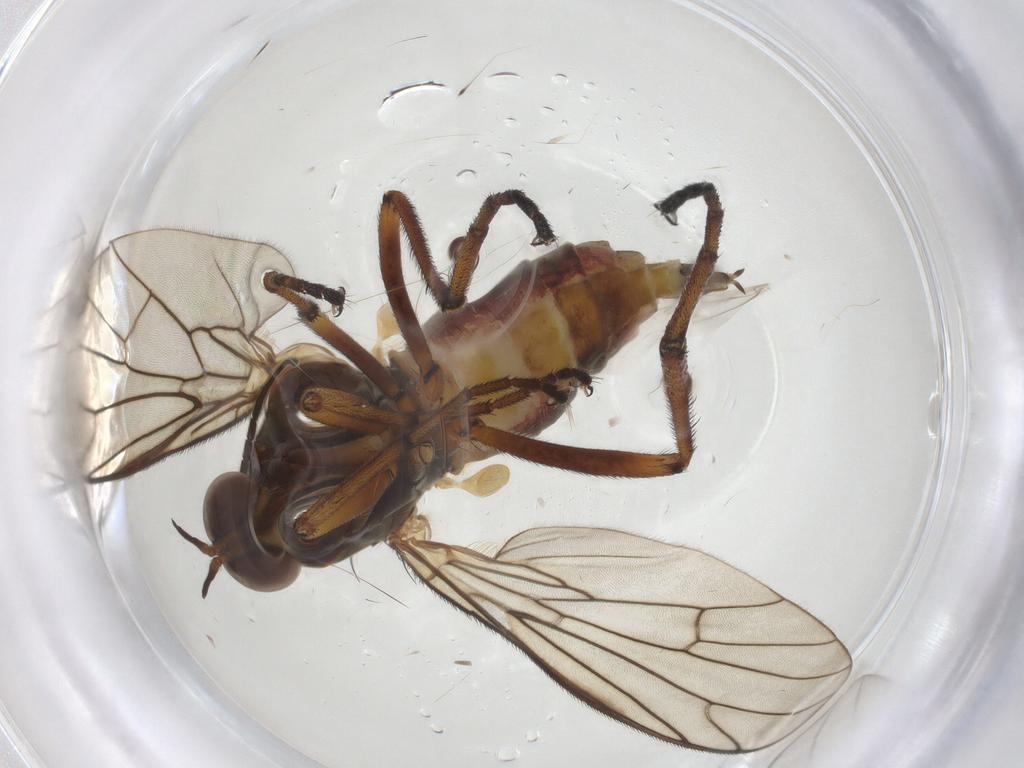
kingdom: Animalia
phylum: Arthropoda
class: Insecta
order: Diptera
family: Empididae
